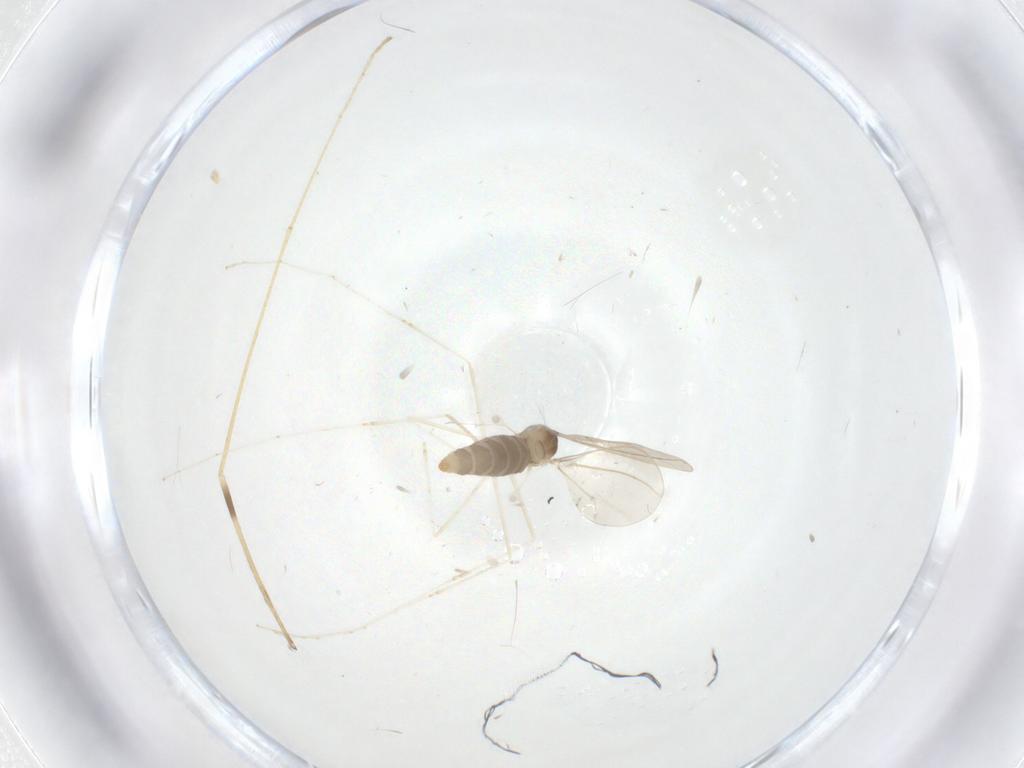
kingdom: Animalia
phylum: Arthropoda
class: Insecta
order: Diptera
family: Cecidomyiidae
